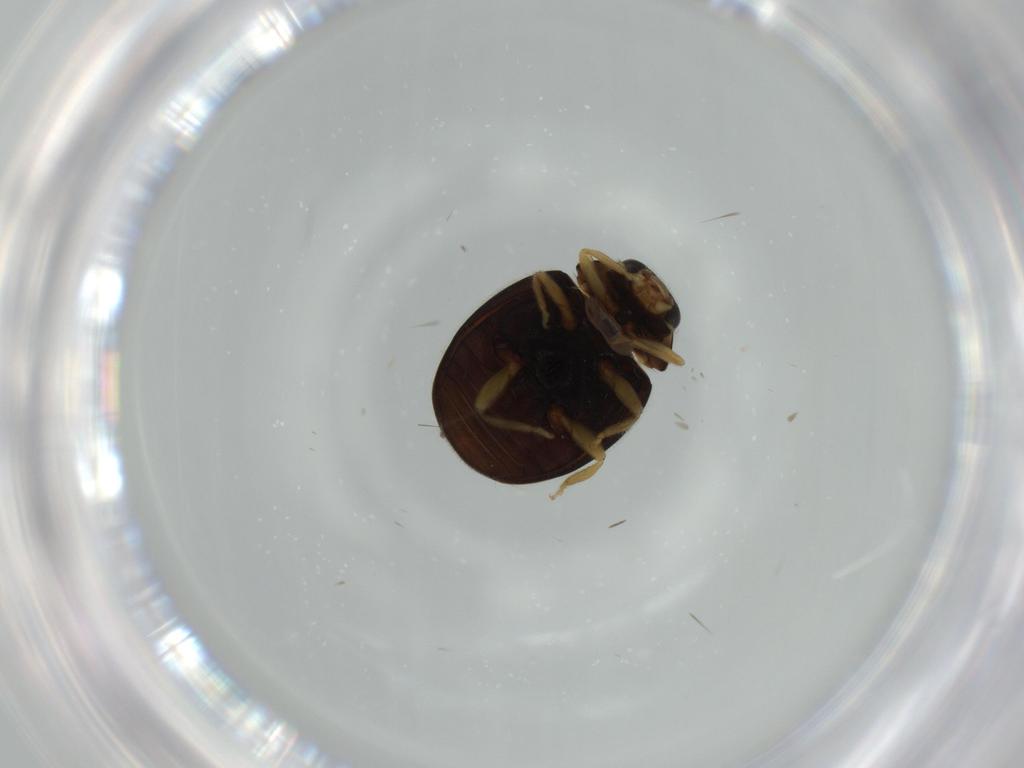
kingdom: Animalia
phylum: Arthropoda
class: Insecta
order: Coleoptera
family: Coccinellidae
